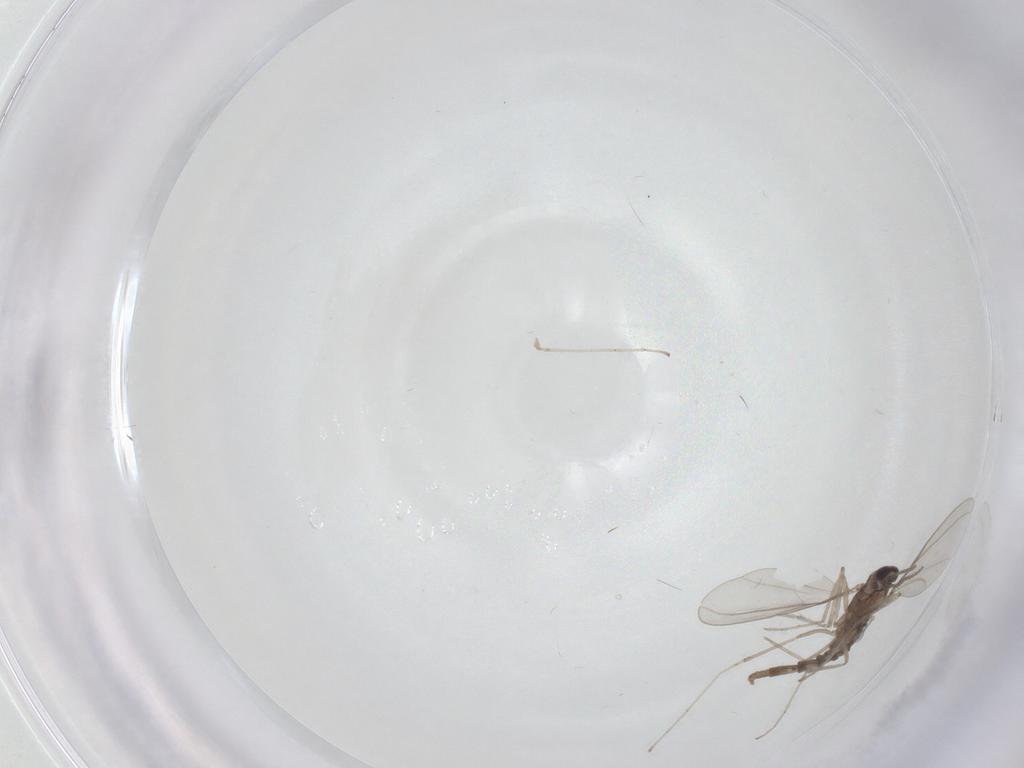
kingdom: Animalia
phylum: Arthropoda
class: Insecta
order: Diptera
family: Cecidomyiidae
